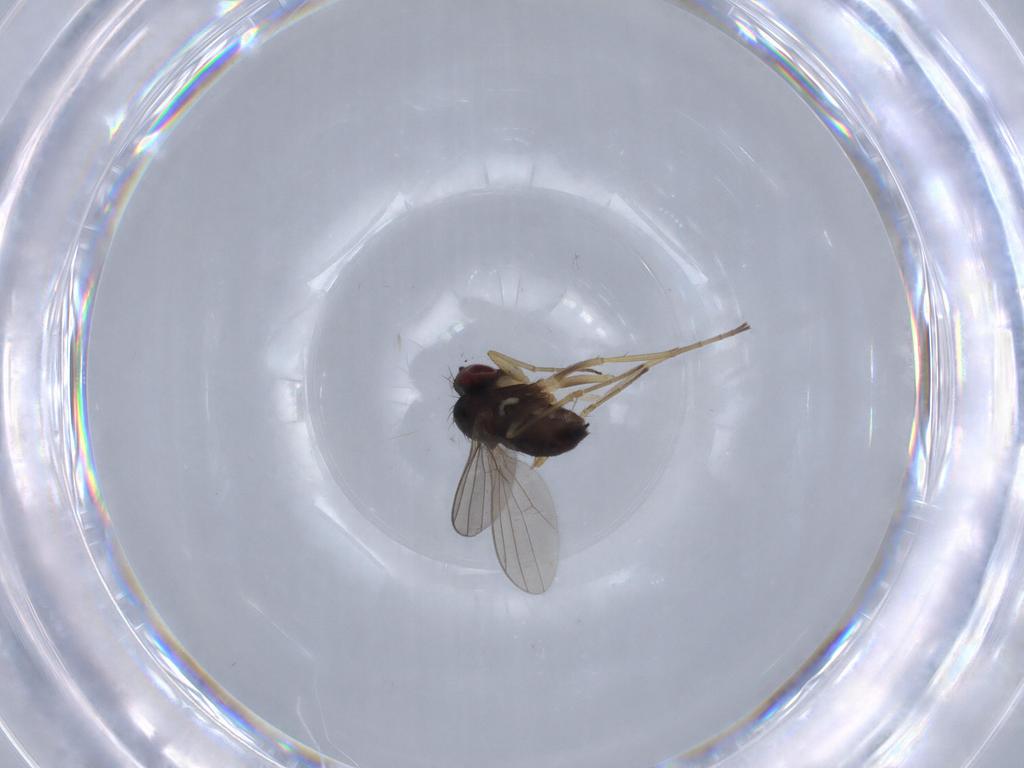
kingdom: Animalia
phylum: Arthropoda
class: Insecta
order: Diptera
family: Dolichopodidae
